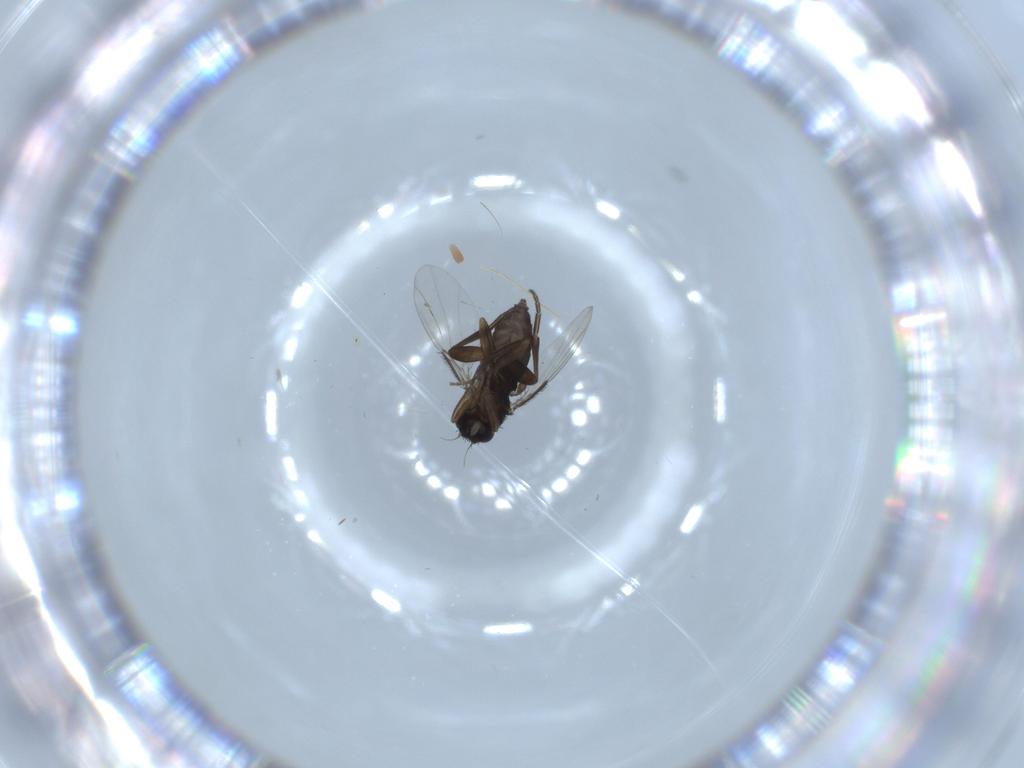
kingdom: Animalia
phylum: Arthropoda
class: Insecta
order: Diptera
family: Phoridae
